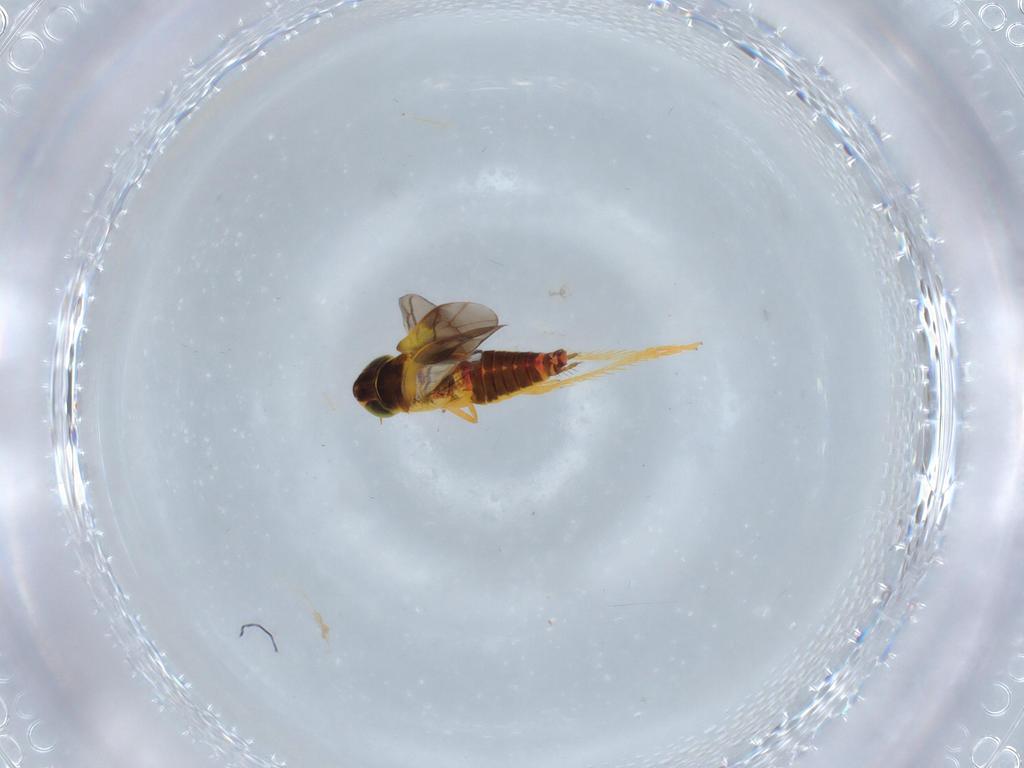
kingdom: Animalia
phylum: Arthropoda
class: Insecta
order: Hemiptera
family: Cicadellidae
